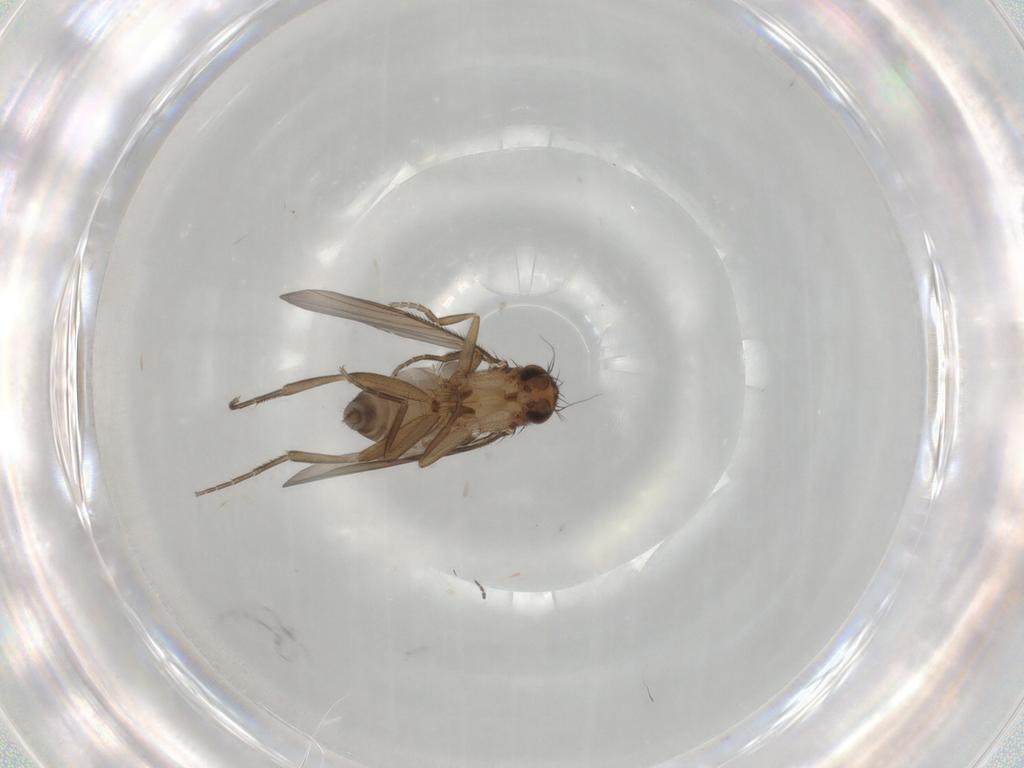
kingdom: Animalia
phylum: Arthropoda
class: Insecta
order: Diptera
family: Phoridae
